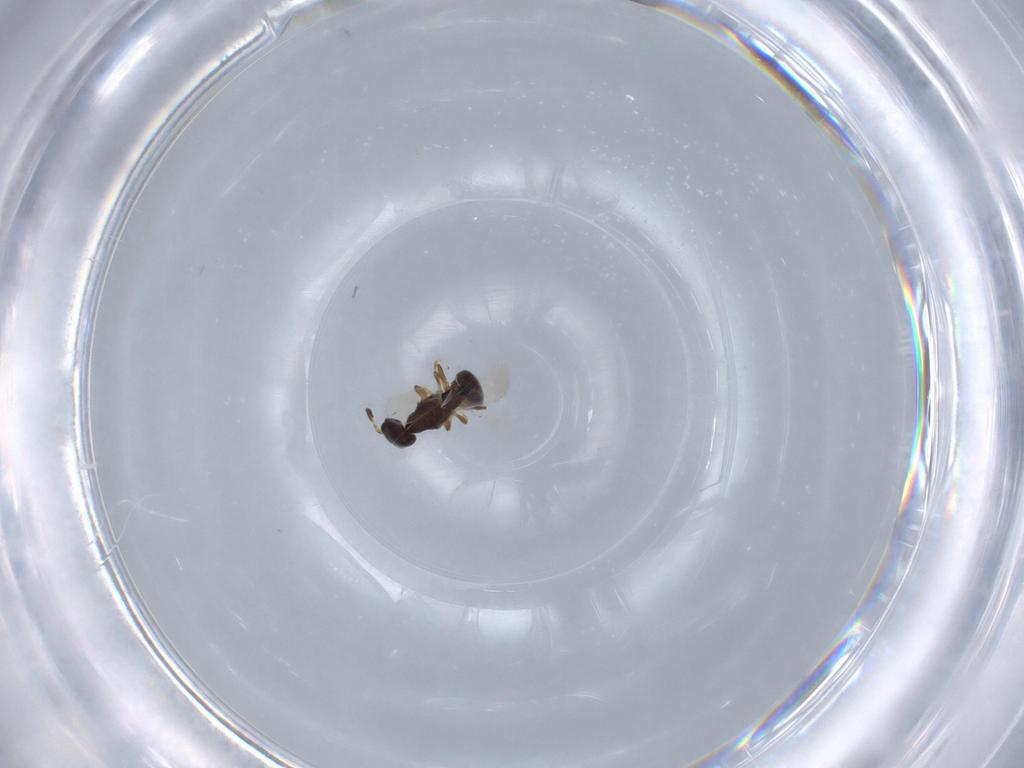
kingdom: Animalia
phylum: Arthropoda
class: Insecta
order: Hymenoptera
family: Bethylidae
